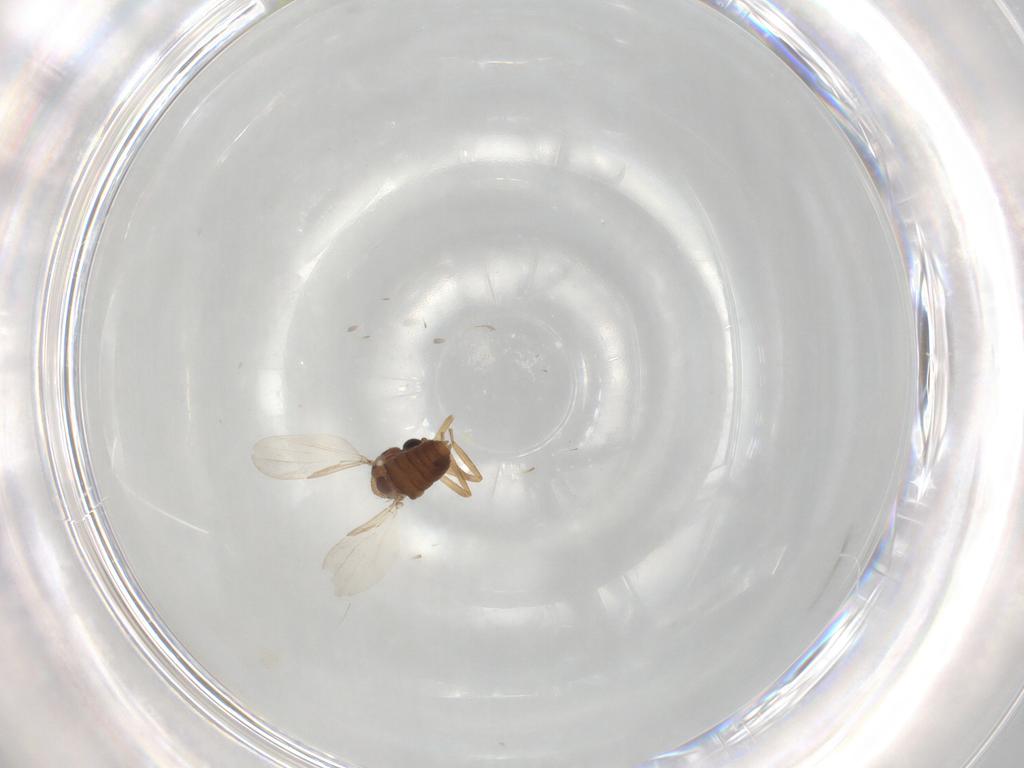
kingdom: Animalia
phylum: Arthropoda
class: Insecta
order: Diptera
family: Ceratopogonidae
